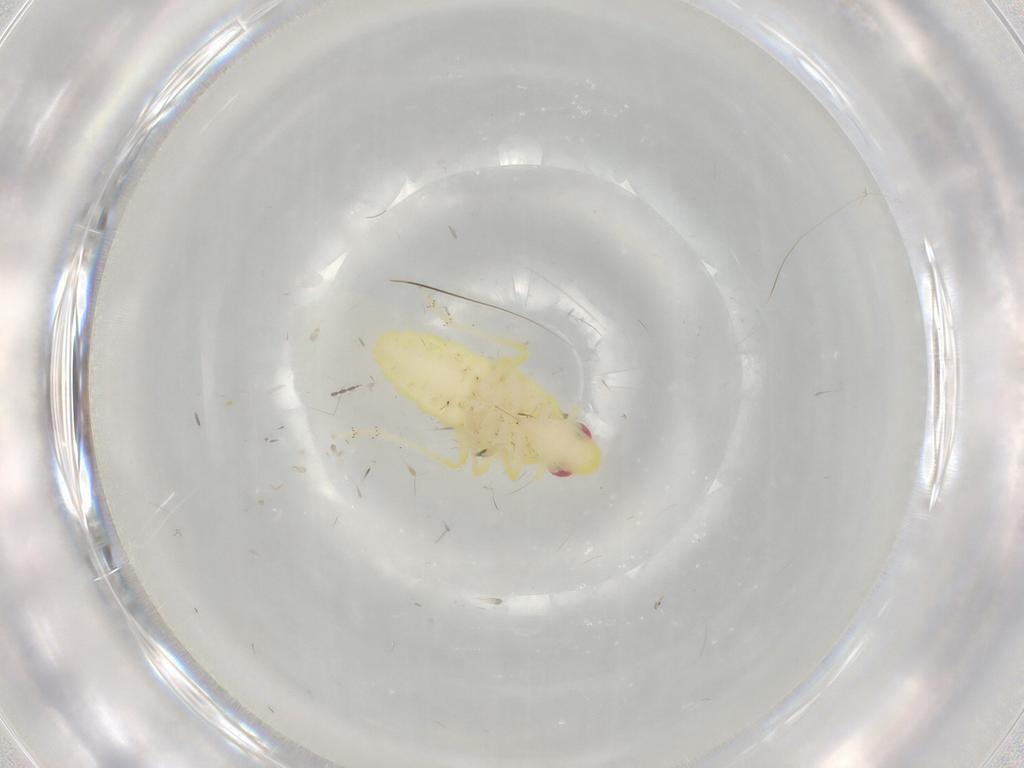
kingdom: Animalia
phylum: Arthropoda
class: Insecta
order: Hemiptera
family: Tropiduchidae
